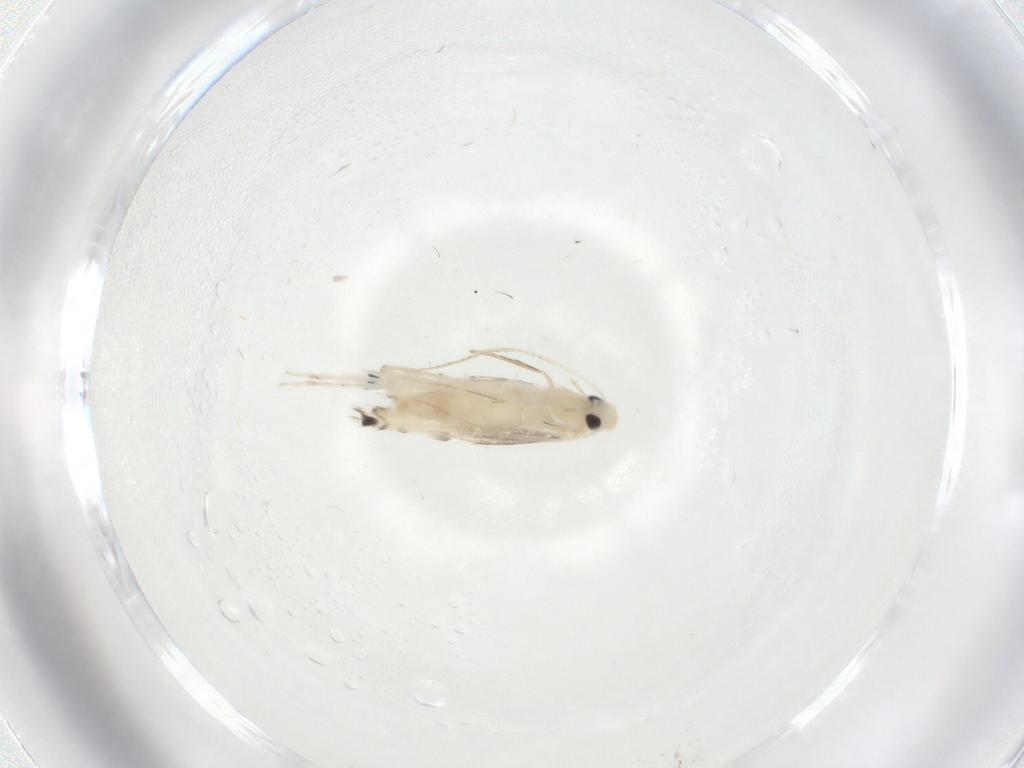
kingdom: Animalia
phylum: Arthropoda
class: Insecta
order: Lepidoptera
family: Gracillariidae
